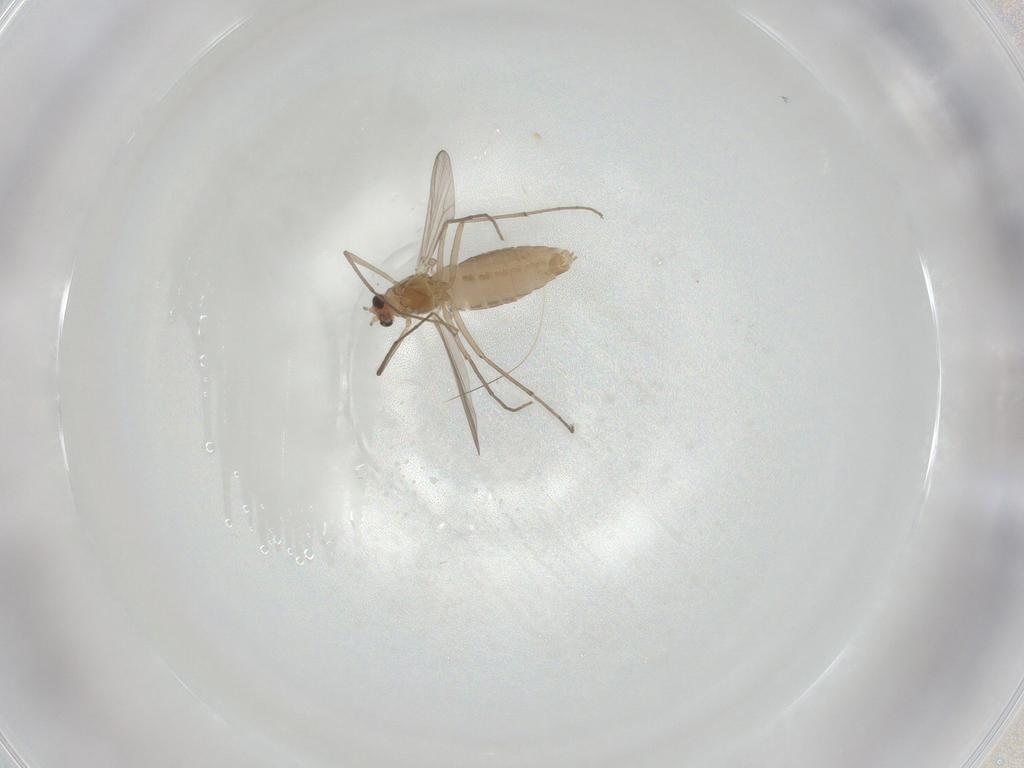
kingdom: Animalia
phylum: Arthropoda
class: Insecta
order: Diptera
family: Chironomidae
